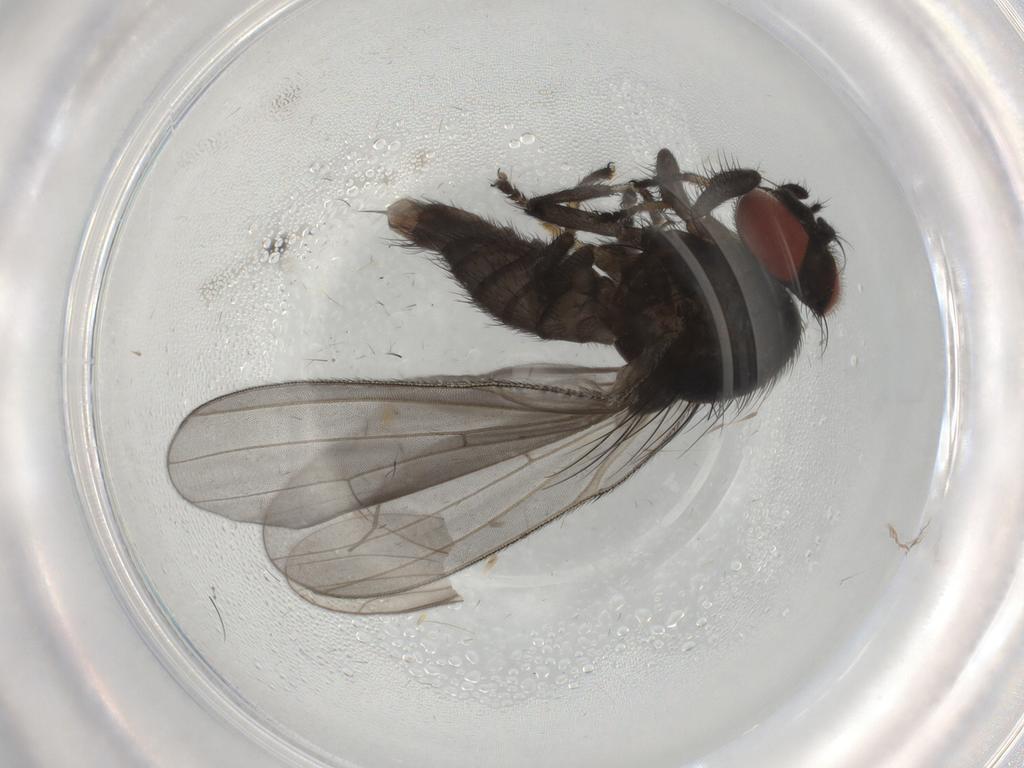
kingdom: Animalia
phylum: Arthropoda
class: Insecta
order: Diptera
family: Lonchaeidae
